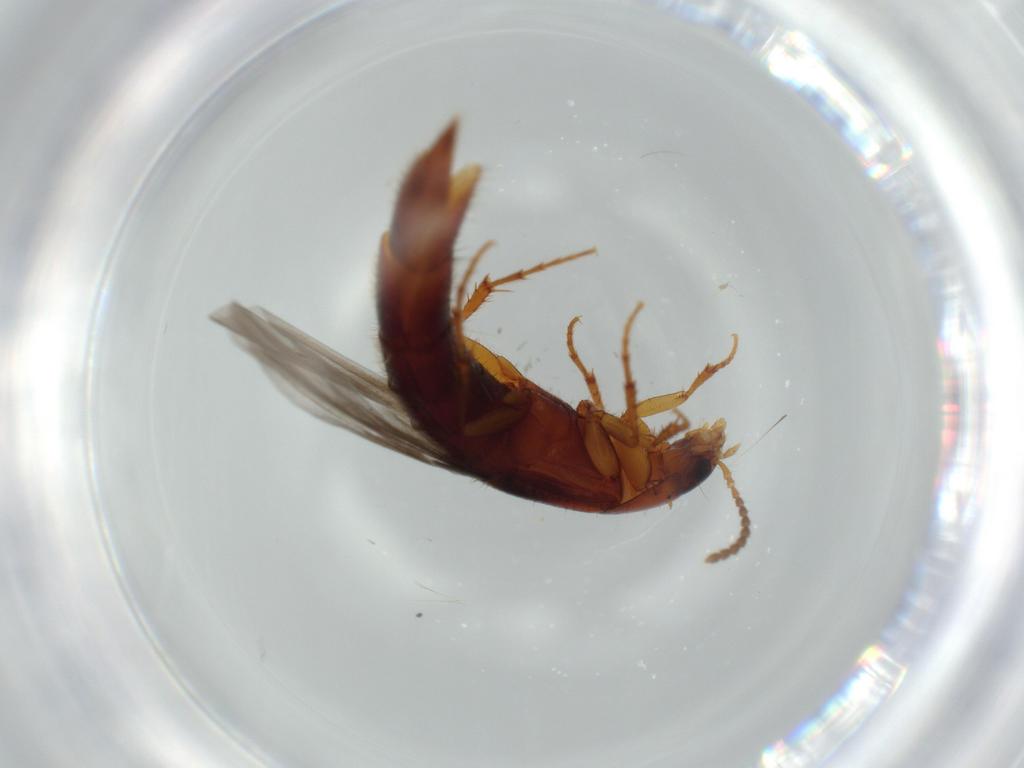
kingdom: Animalia
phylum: Arthropoda
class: Insecta
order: Coleoptera
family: Staphylinidae
